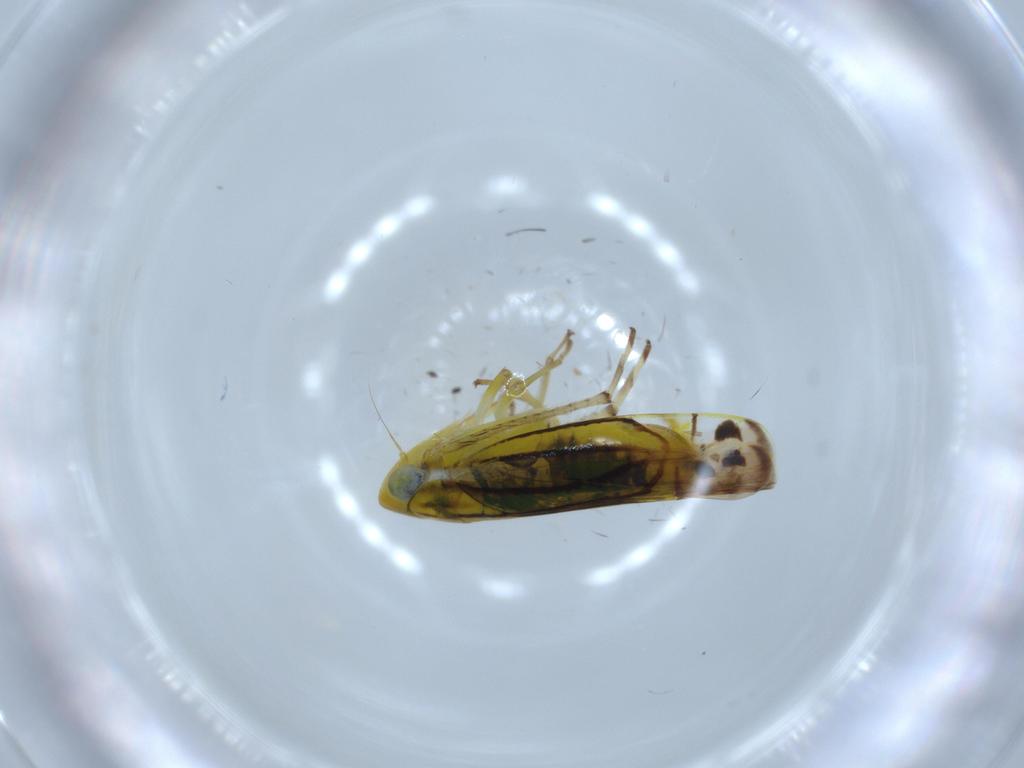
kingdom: Animalia
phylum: Arthropoda
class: Insecta
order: Hemiptera
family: Cicadellidae
